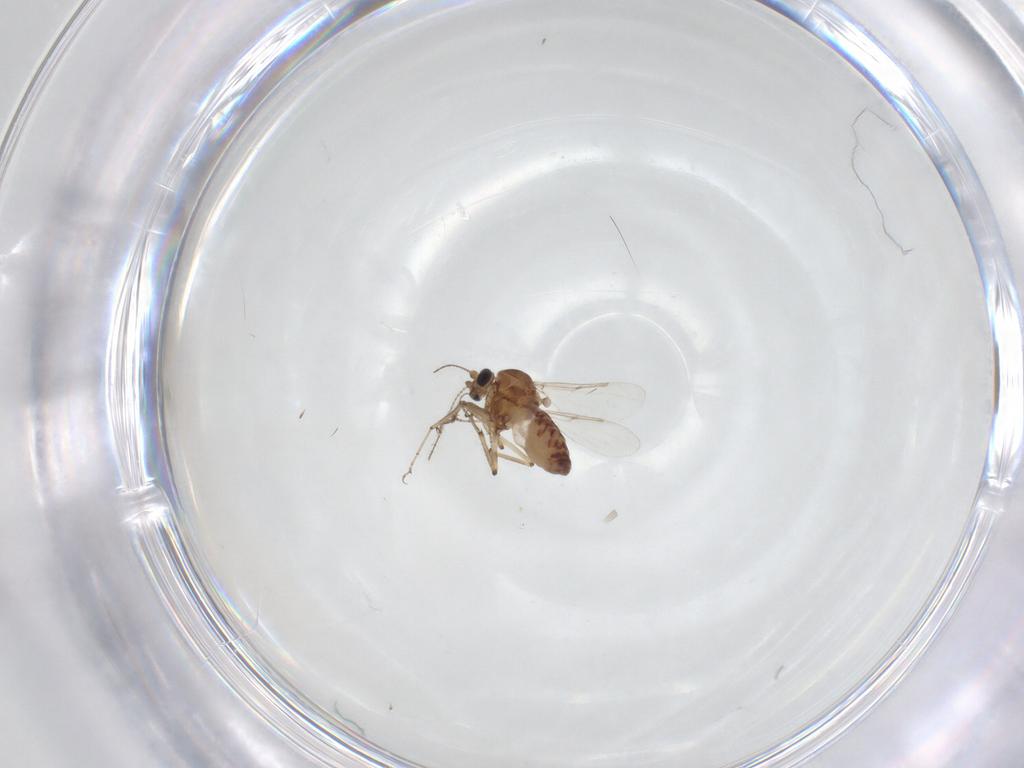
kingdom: Animalia
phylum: Arthropoda
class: Insecta
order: Diptera
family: Ceratopogonidae
